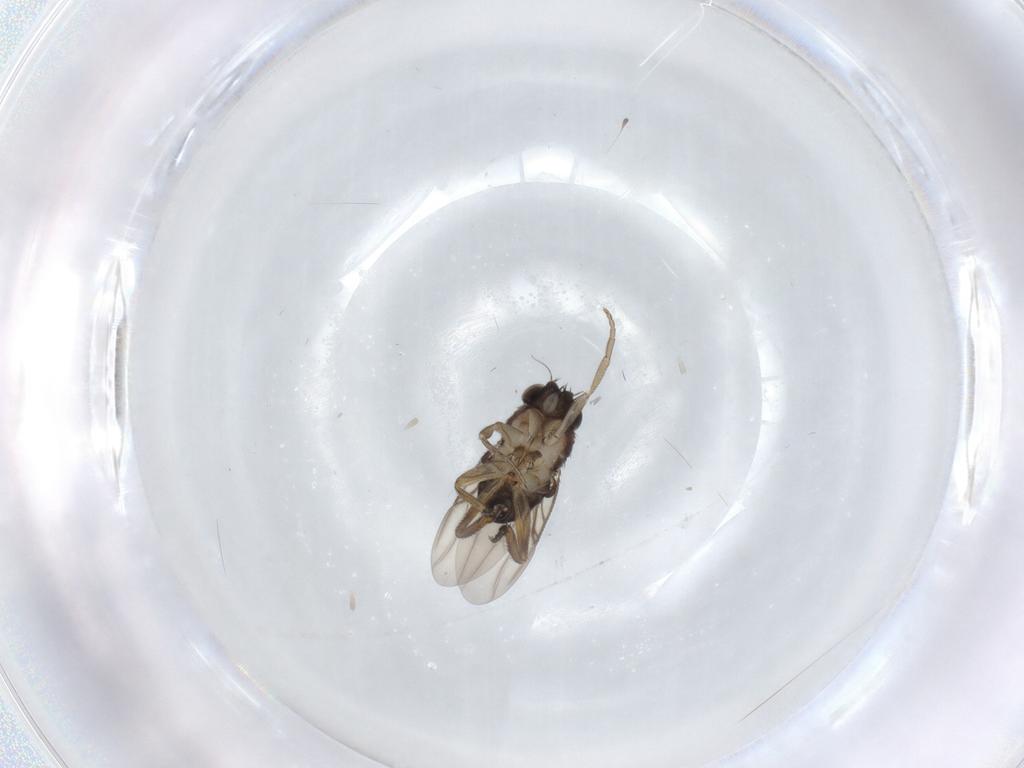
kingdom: Animalia
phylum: Arthropoda
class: Insecta
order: Diptera
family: Phoridae
